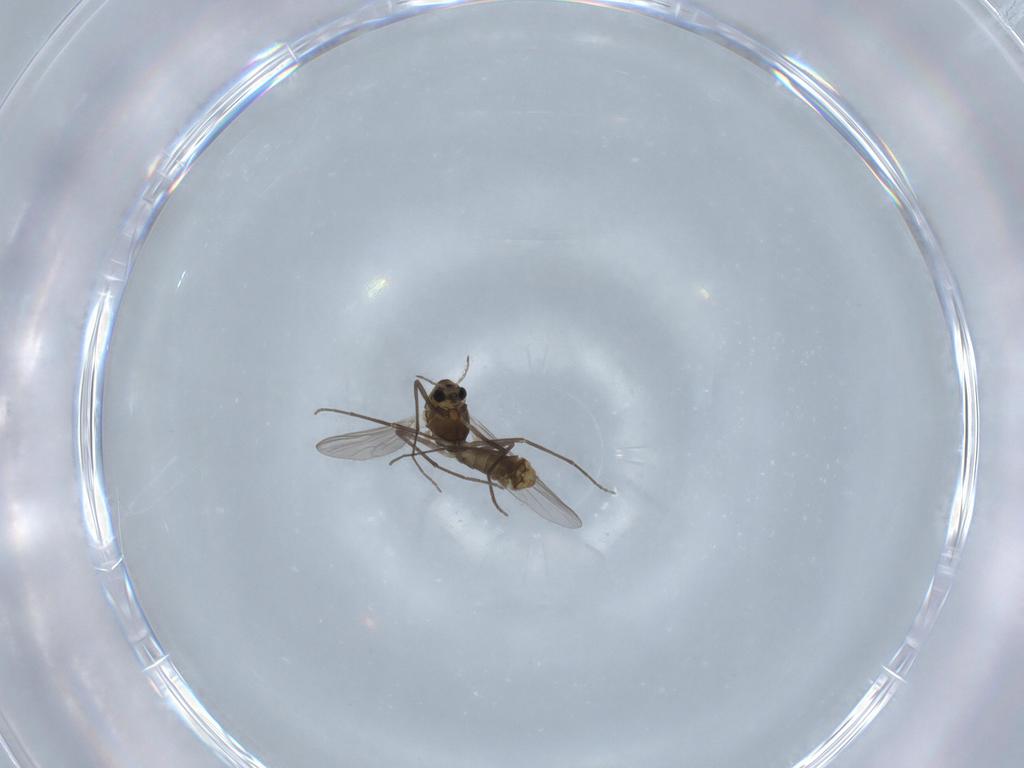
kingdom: Animalia
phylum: Arthropoda
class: Insecta
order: Diptera
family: Chironomidae
